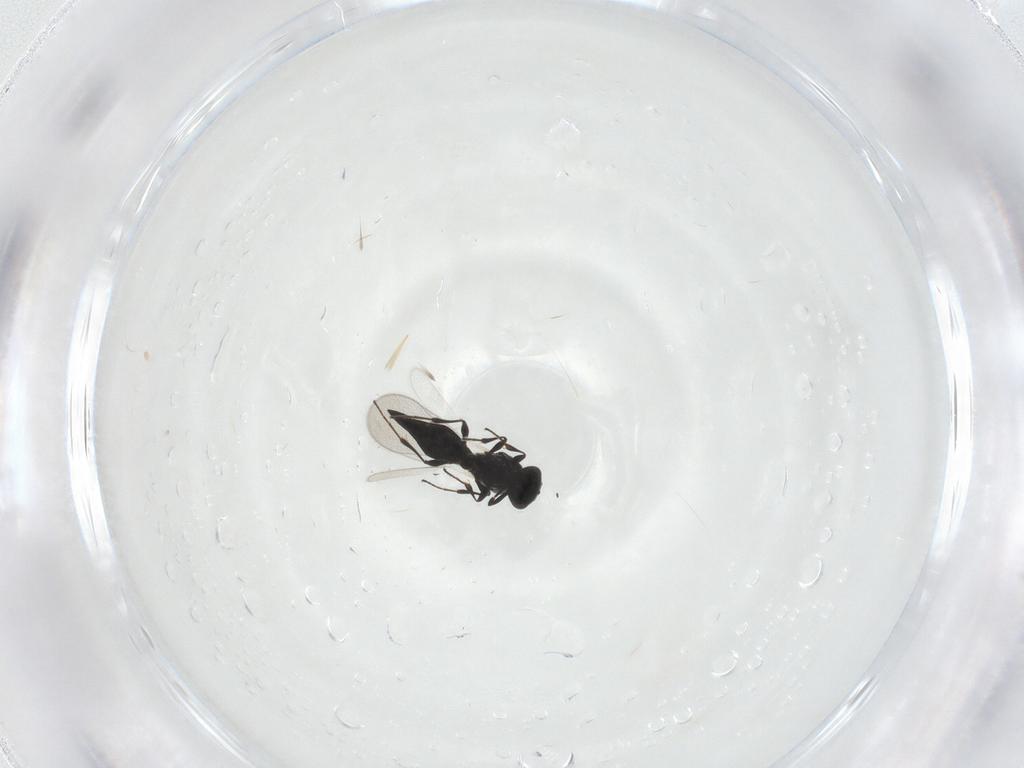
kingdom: Animalia
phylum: Arthropoda
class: Insecta
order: Hymenoptera
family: Platygastridae
